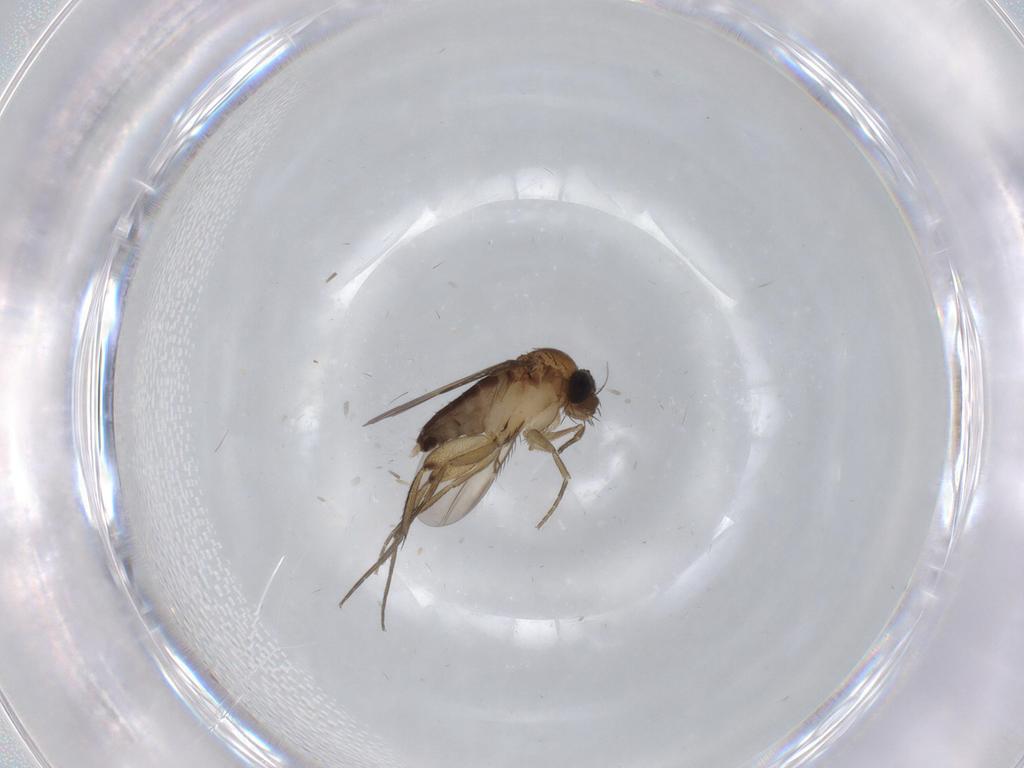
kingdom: Animalia
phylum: Arthropoda
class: Insecta
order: Diptera
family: Phoridae
